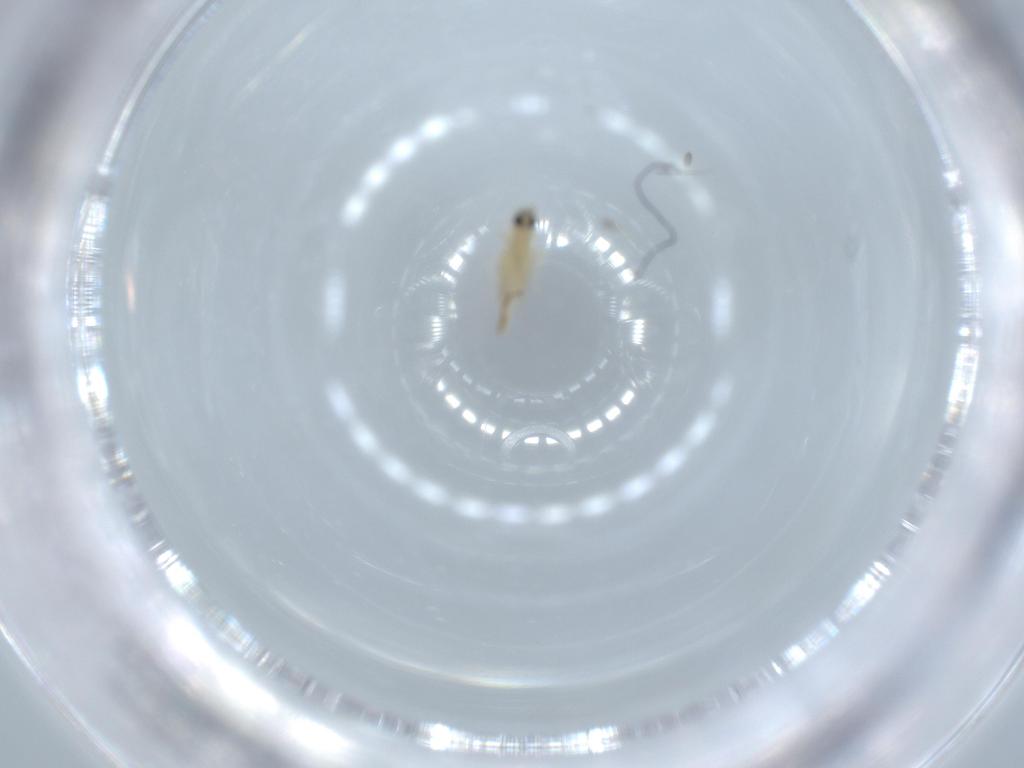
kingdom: Animalia
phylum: Arthropoda
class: Insecta
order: Diptera
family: Cecidomyiidae
